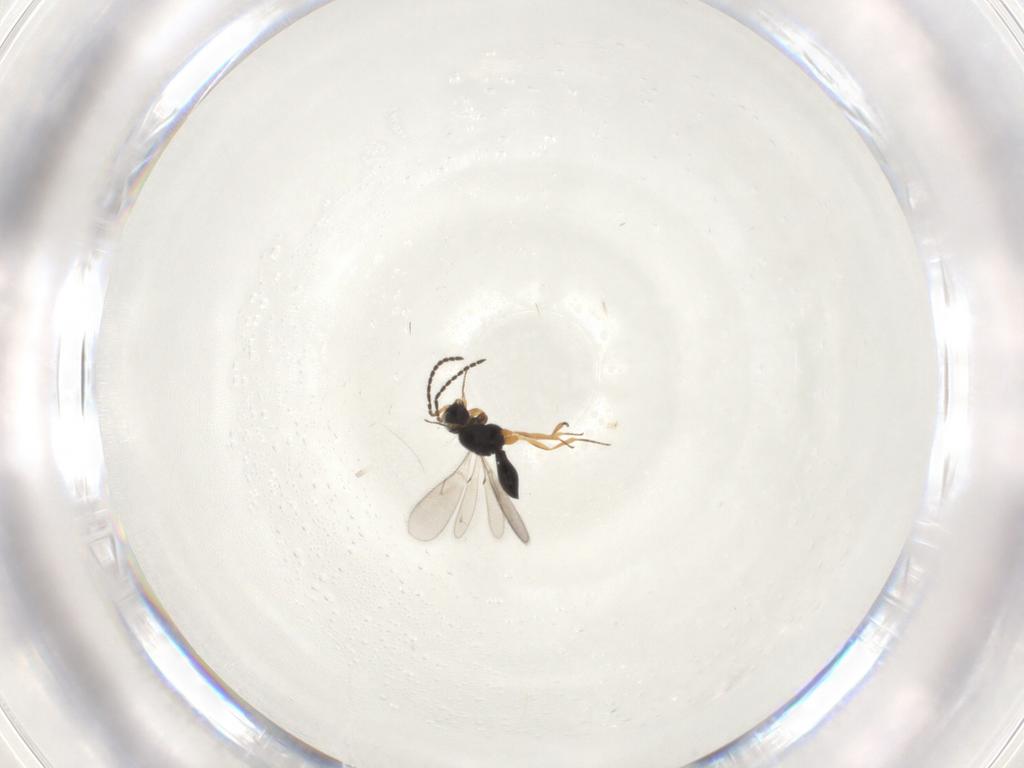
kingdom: Animalia
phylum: Arthropoda
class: Insecta
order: Hymenoptera
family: Scelionidae
